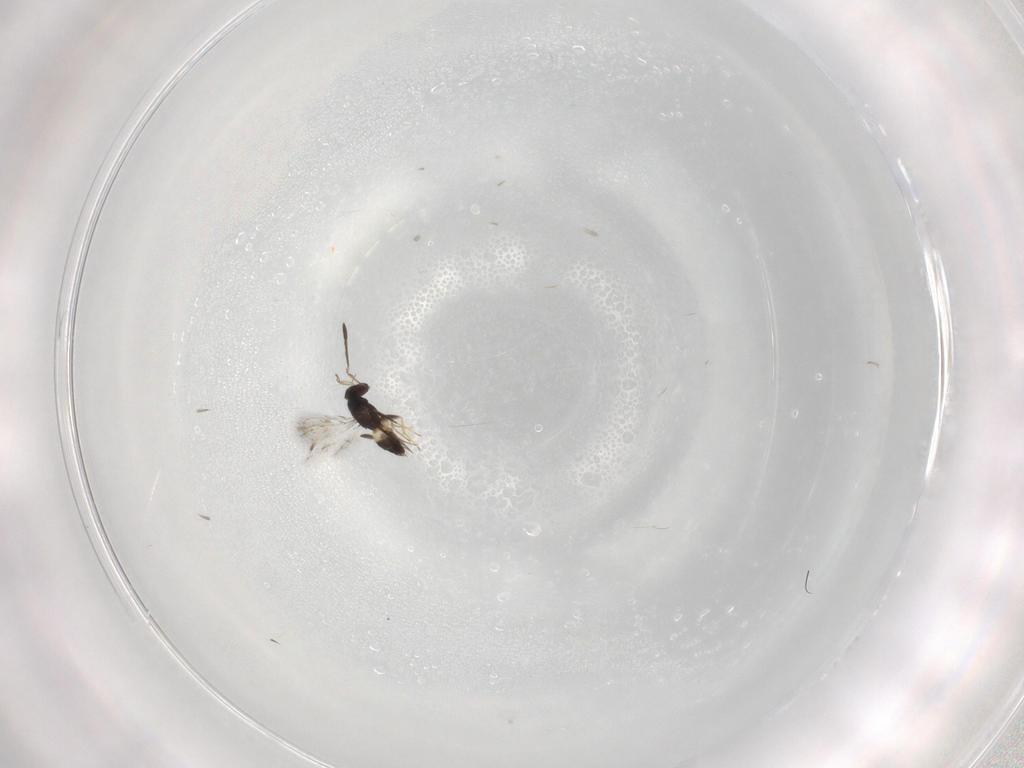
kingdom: Animalia
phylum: Arthropoda
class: Insecta
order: Hymenoptera
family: Mymaridae
